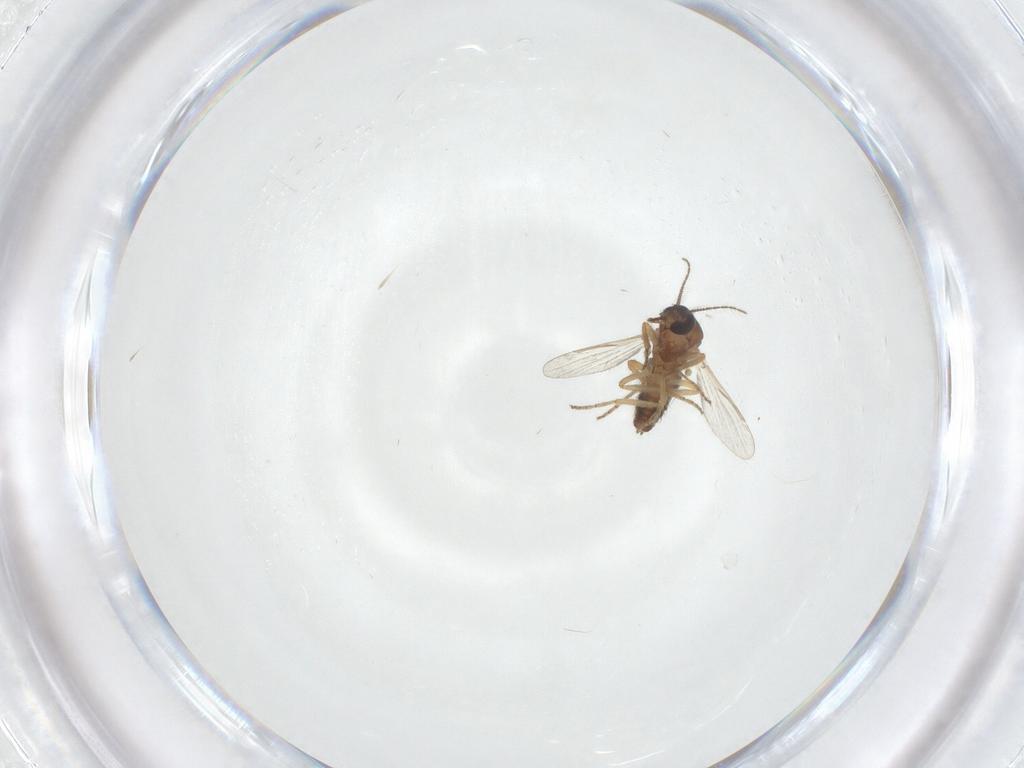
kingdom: Animalia
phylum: Arthropoda
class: Insecta
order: Diptera
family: Ceratopogonidae
